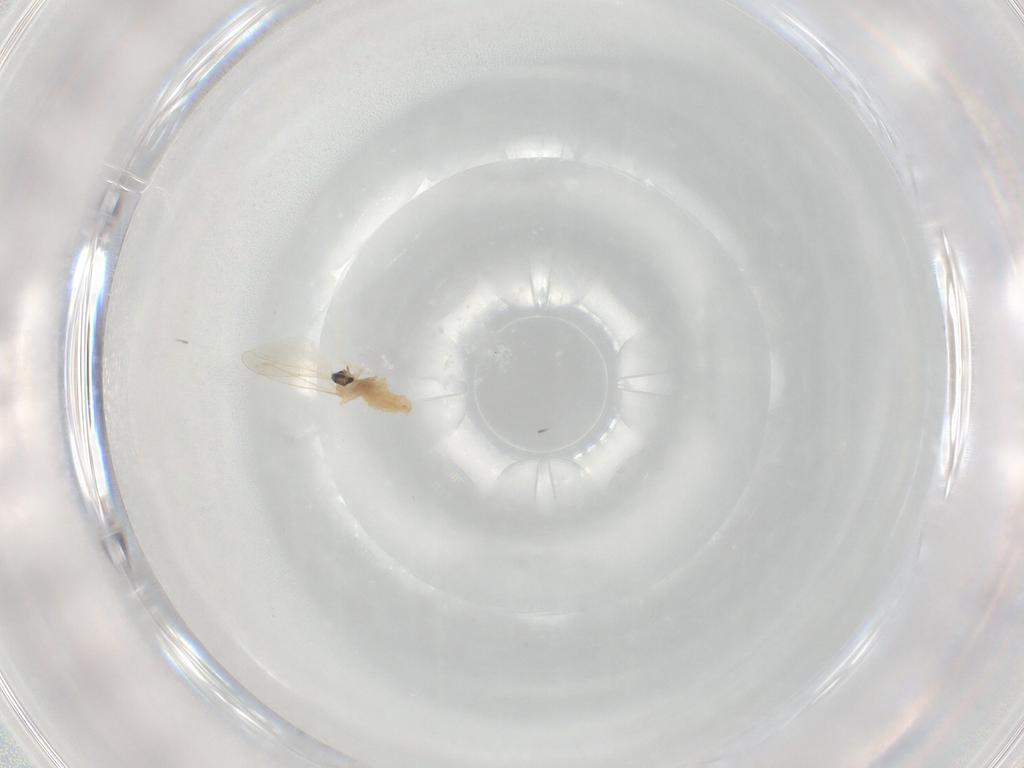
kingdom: Animalia
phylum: Arthropoda
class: Insecta
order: Diptera
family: Cecidomyiidae
